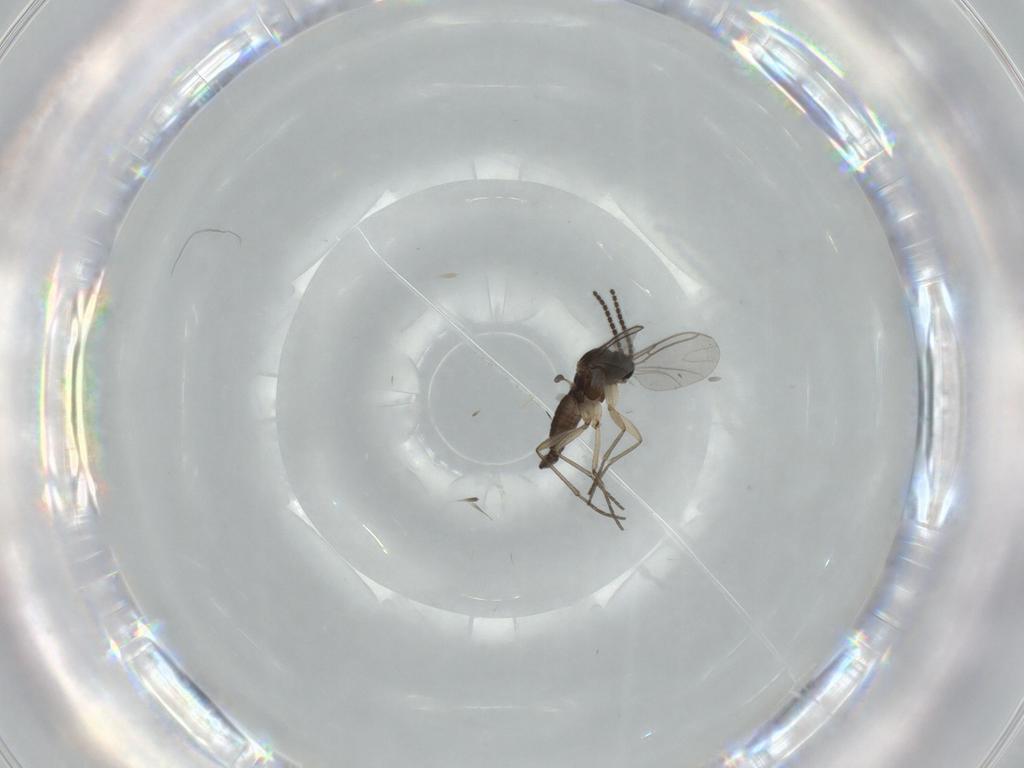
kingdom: Animalia
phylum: Arthropoda
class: Insecta
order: Diptera
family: Sciaridae
